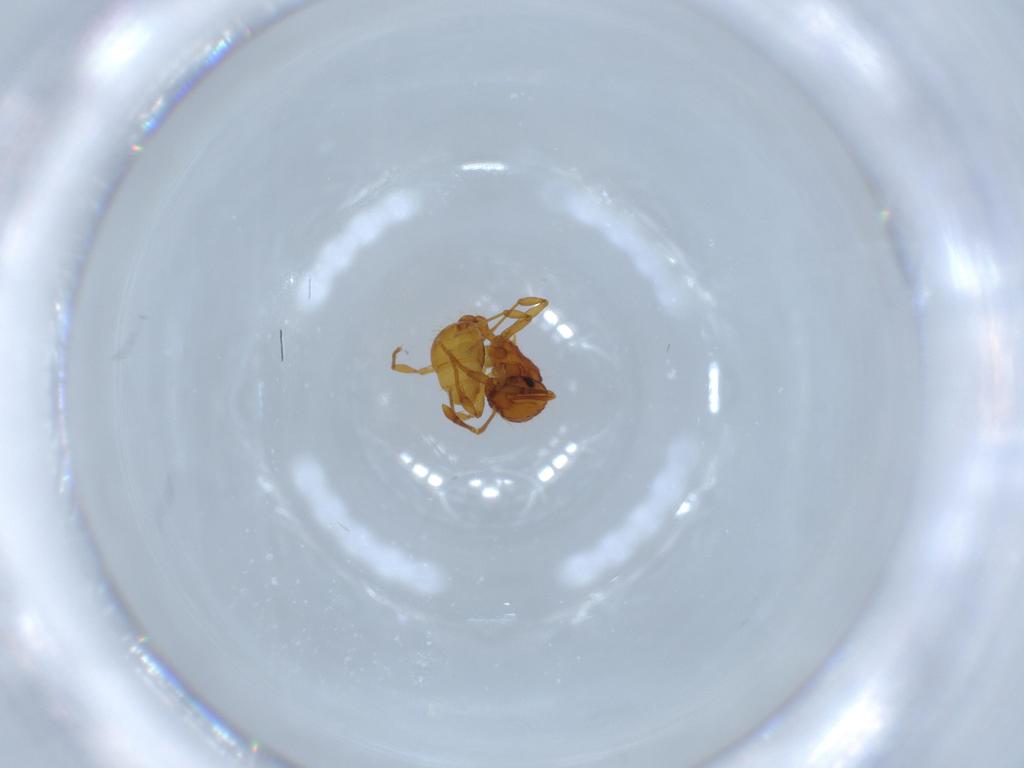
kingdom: Animalia
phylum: Arthropoda
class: Insecta
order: Hymenoptera
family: Formicidae
